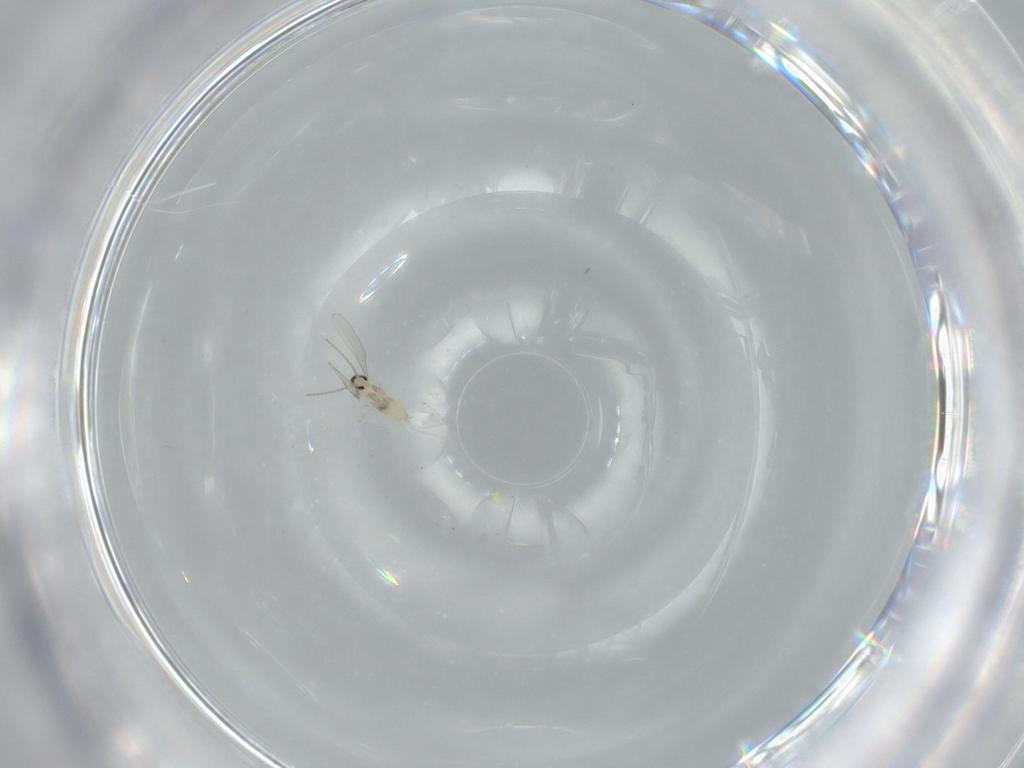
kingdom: Animalia
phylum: Arthropoda
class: Insecta
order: Diptera
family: Cecidomyiidae
